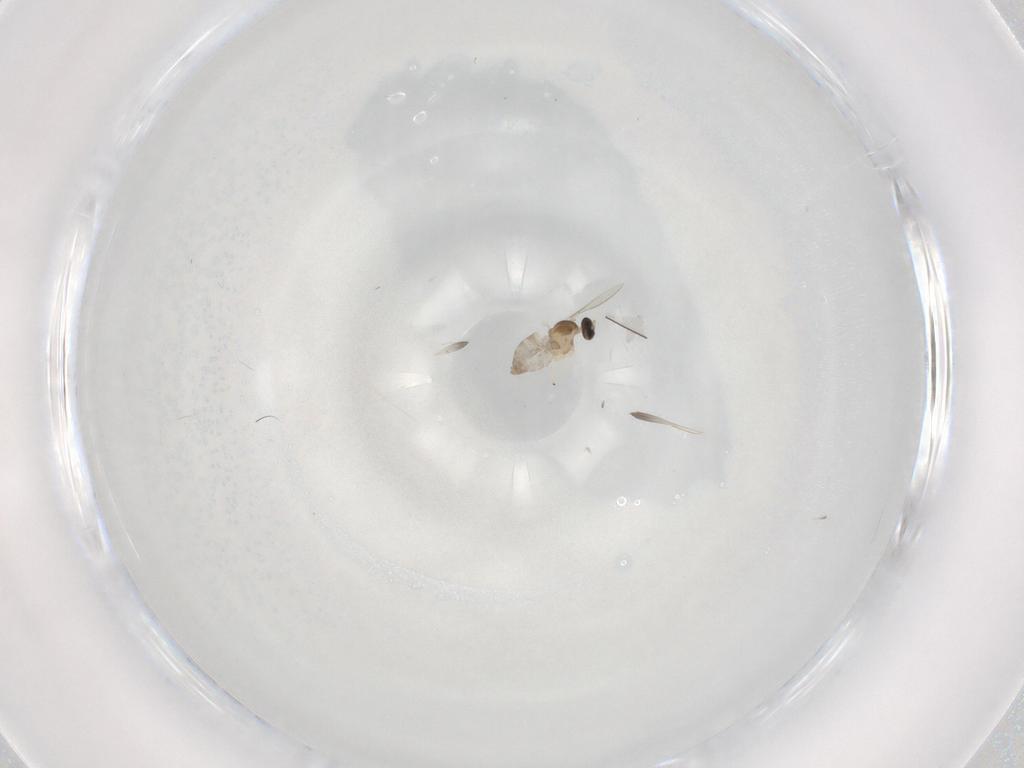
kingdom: Animalia
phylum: Arthropoda
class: Insecta
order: Diptera
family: Cecidomyiidae
